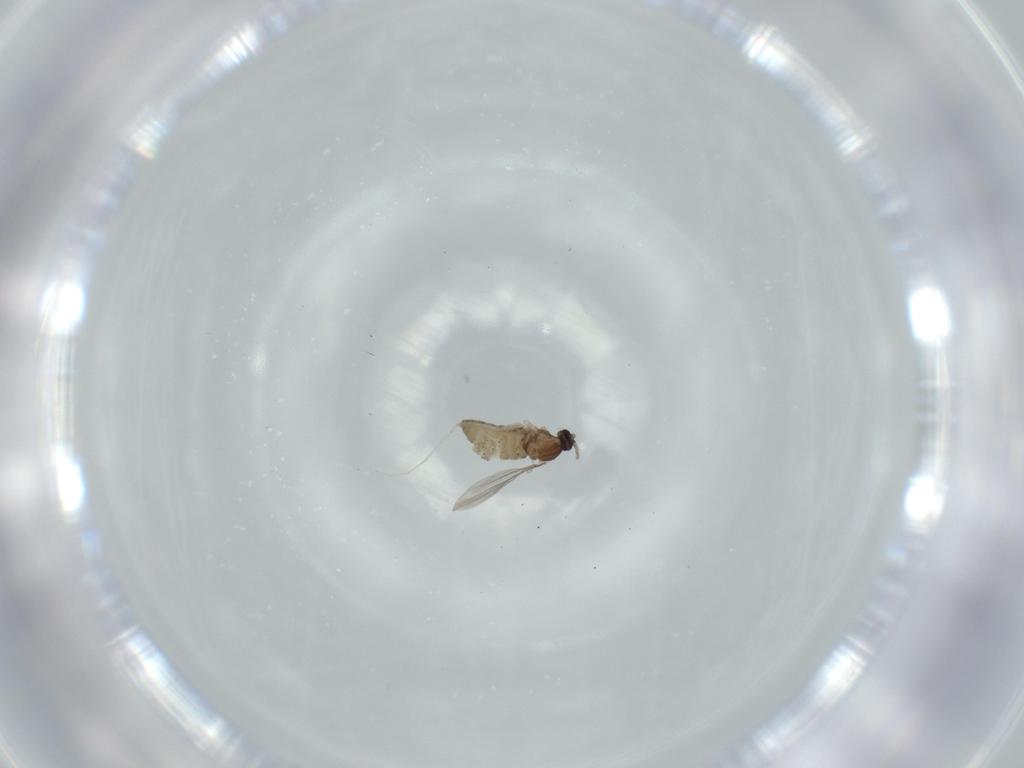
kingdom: Animalia
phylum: Arthropoda
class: Insecta
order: Diptera
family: Cecidomyiidae
